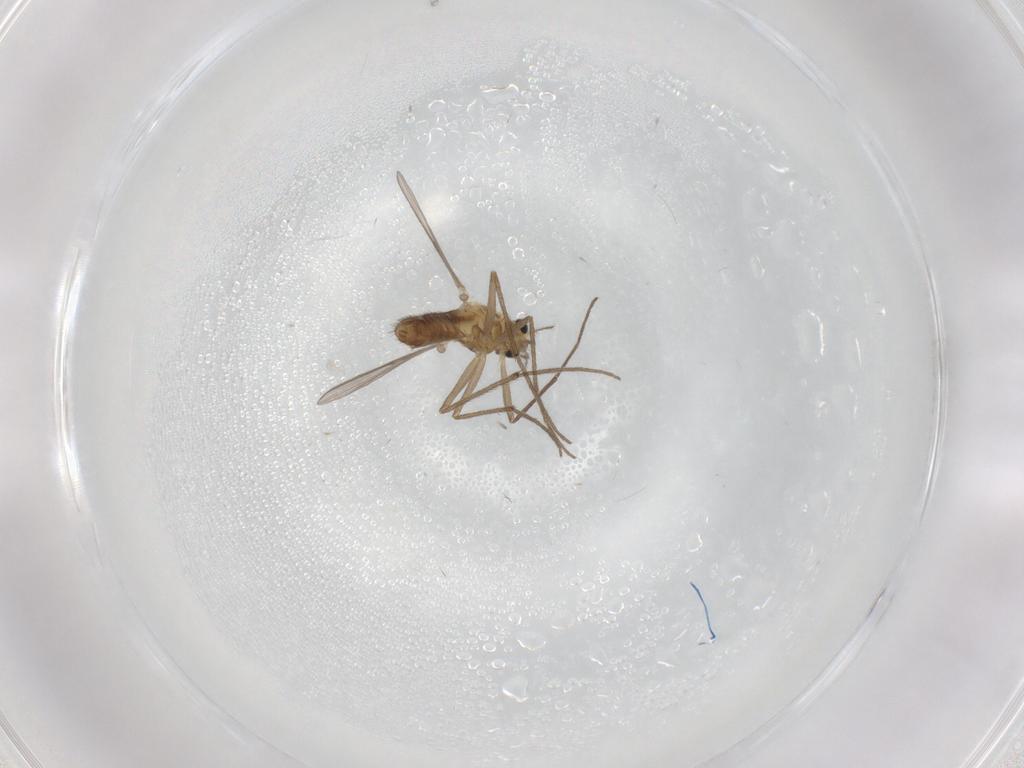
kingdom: Animalia
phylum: Arthropoda
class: Insecta
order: Diptera
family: Chironomidae
